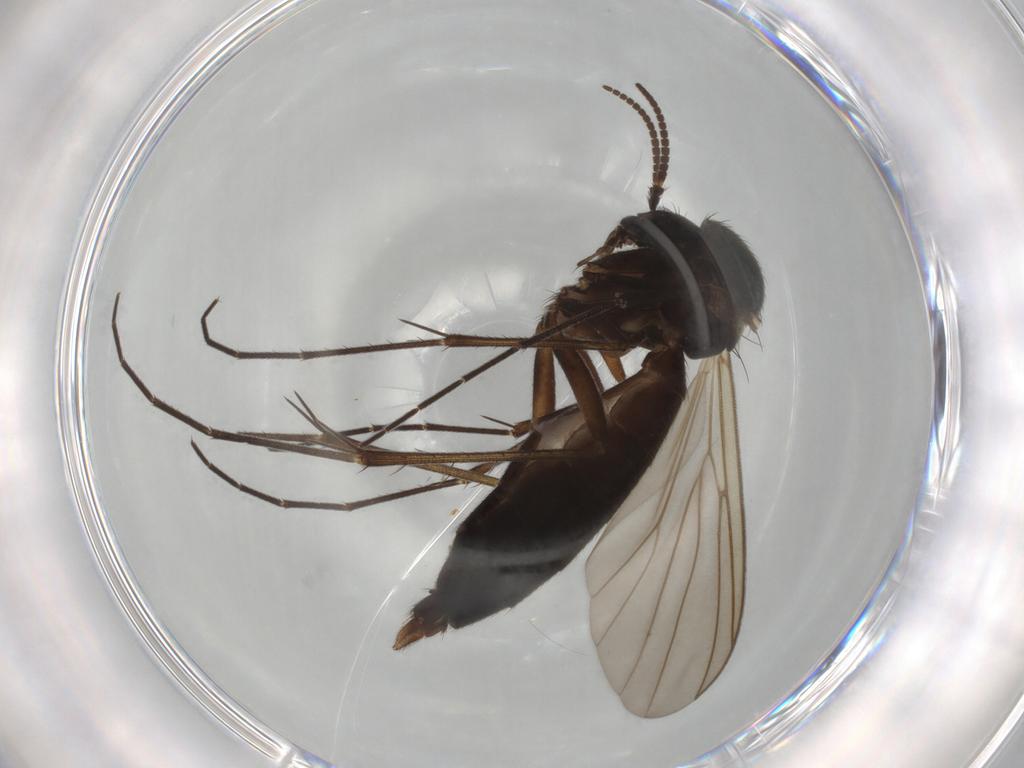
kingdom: Animalia
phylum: Arthropoda
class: Insecta
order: Diptera
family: Mycetophilidae
